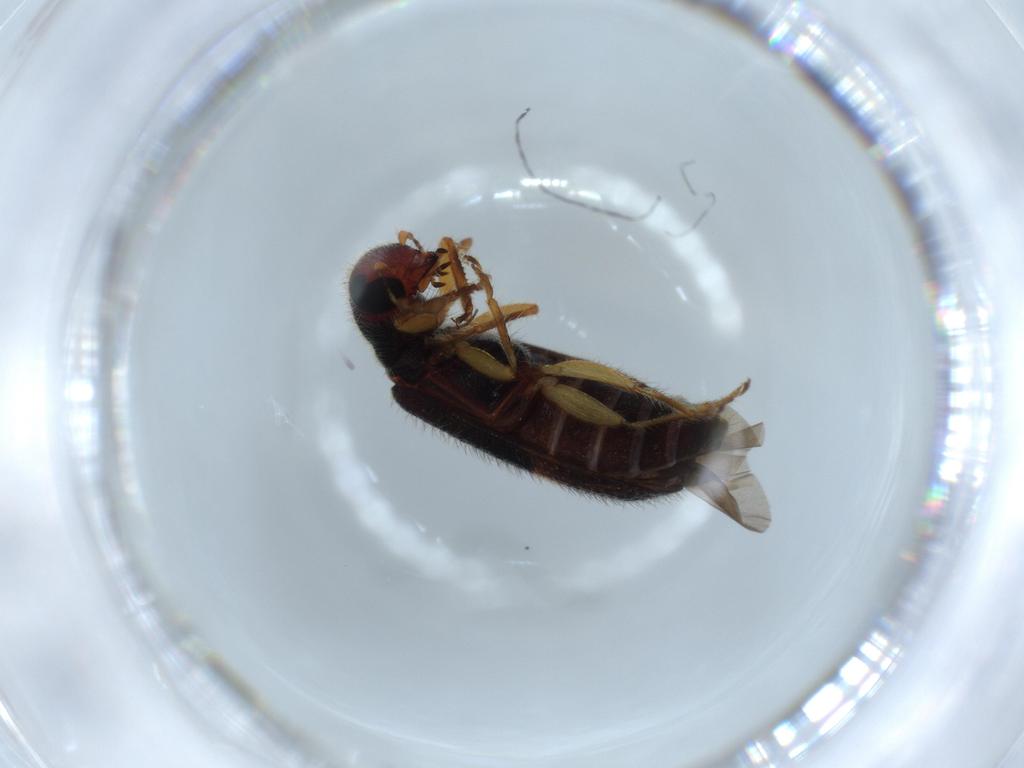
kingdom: Animalia
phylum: Arthropoda
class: Insecta
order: Coleoptera
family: Cleridae
